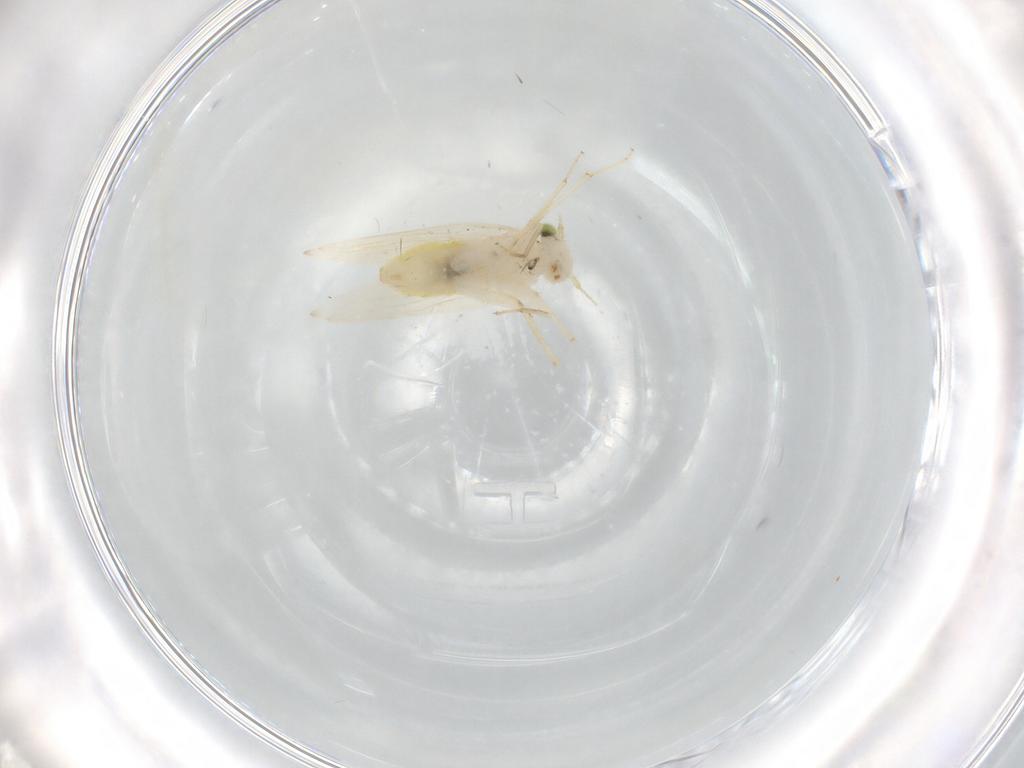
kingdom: Animalia
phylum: Arthropoda
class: Insecta
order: Psocodea
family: Lepidopsocidae
